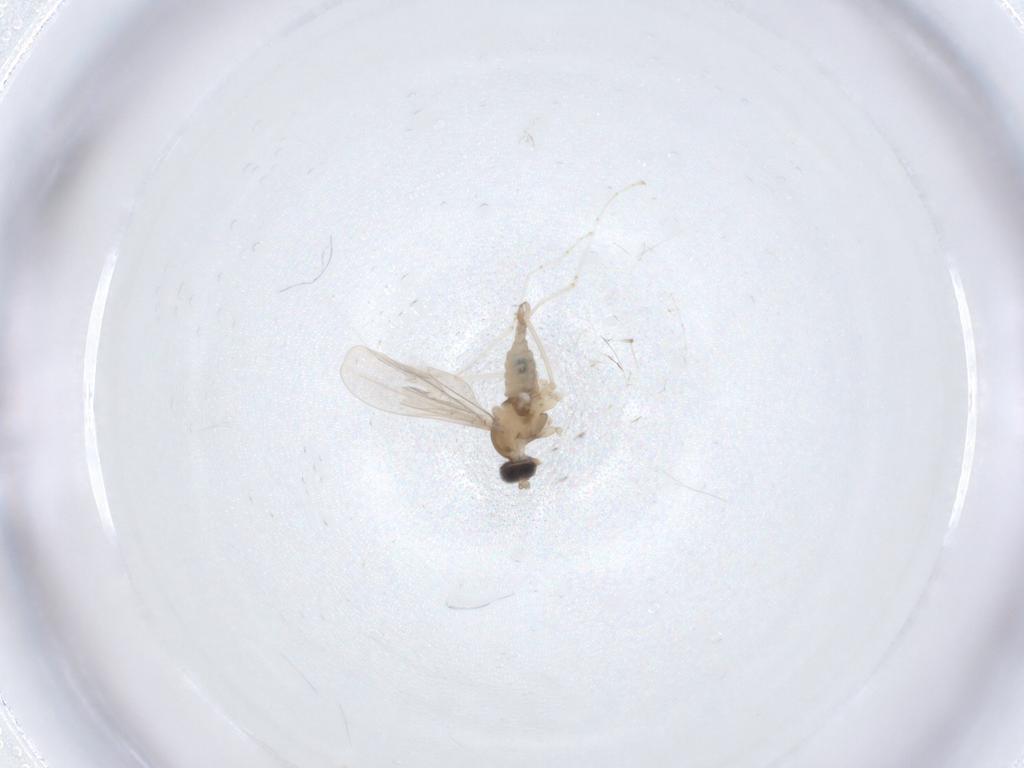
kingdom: Animalia
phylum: Arthropoda
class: Insecta
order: Diptera
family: Cecidomyiidae
